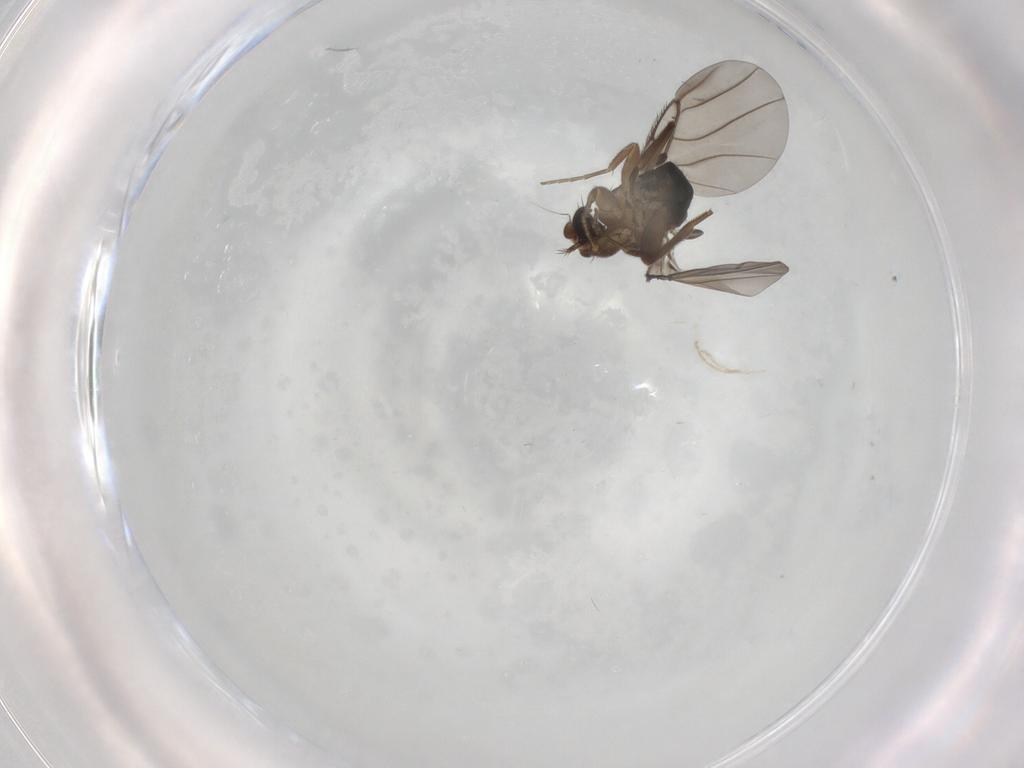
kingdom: Animalia
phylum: Arthropoda
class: Insecta
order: Diptera
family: Phoridae
